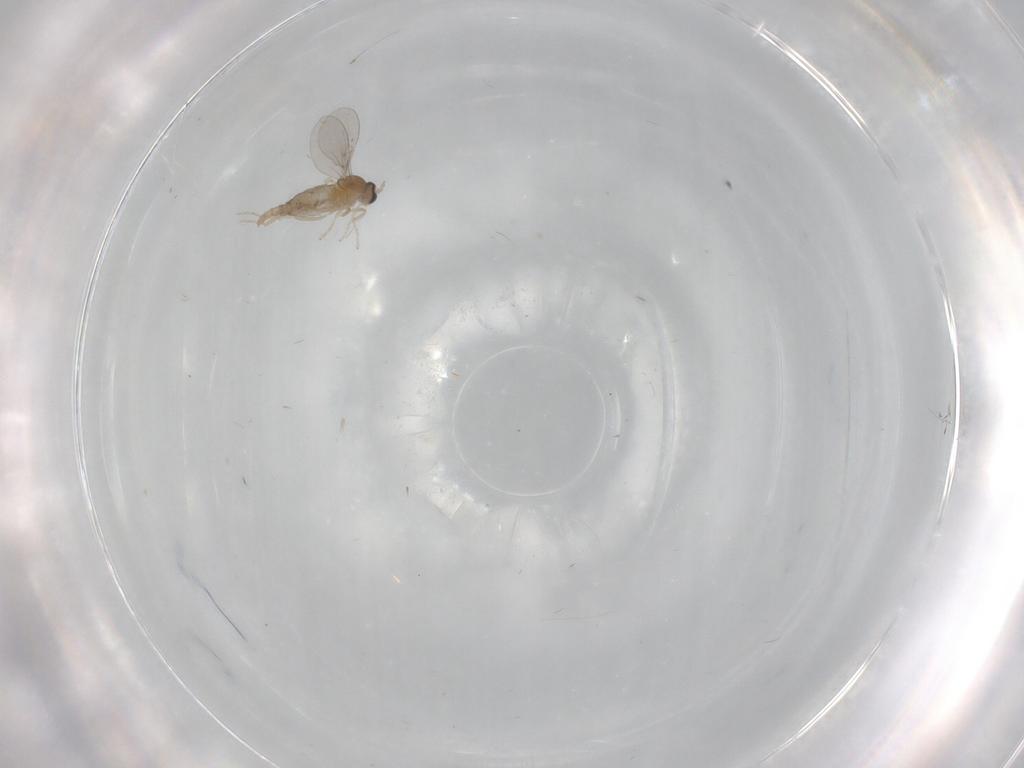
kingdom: Animalia
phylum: Arthropoda
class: Insecta
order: Diptera
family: Cecidomyiidae
